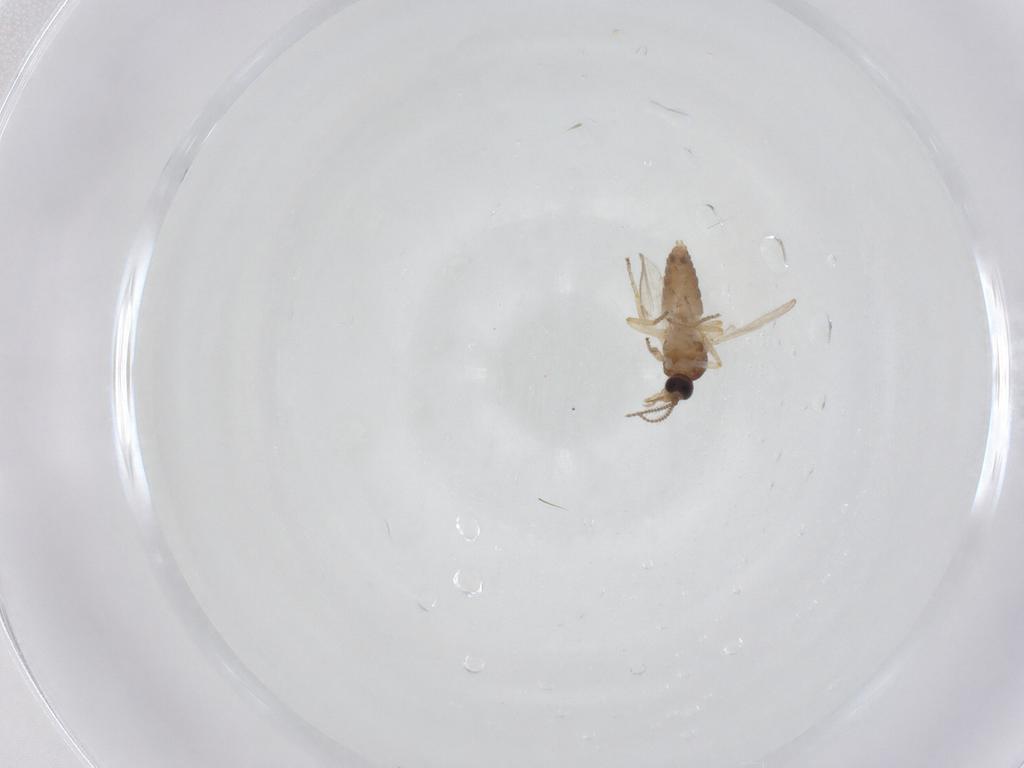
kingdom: Animalia
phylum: Arthropoda
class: Insecta
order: Diptera
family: Ceratopogonidae
